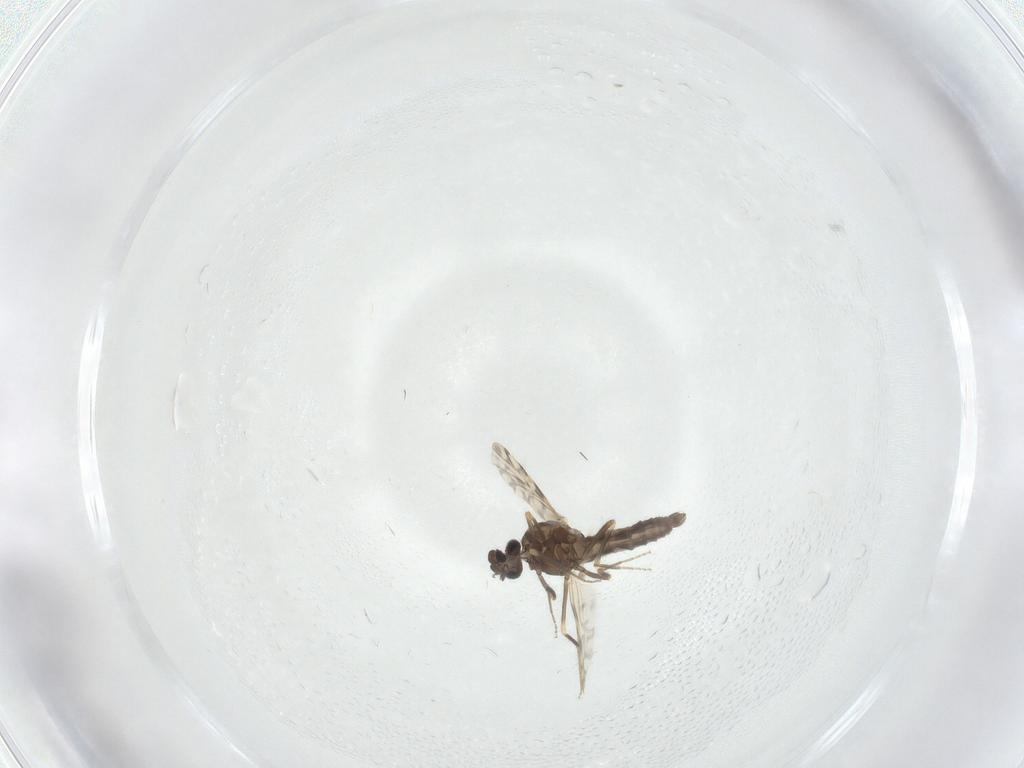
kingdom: Animalia
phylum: Arthropoda
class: Insecta
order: Diptera
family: Ceratopogonidae
